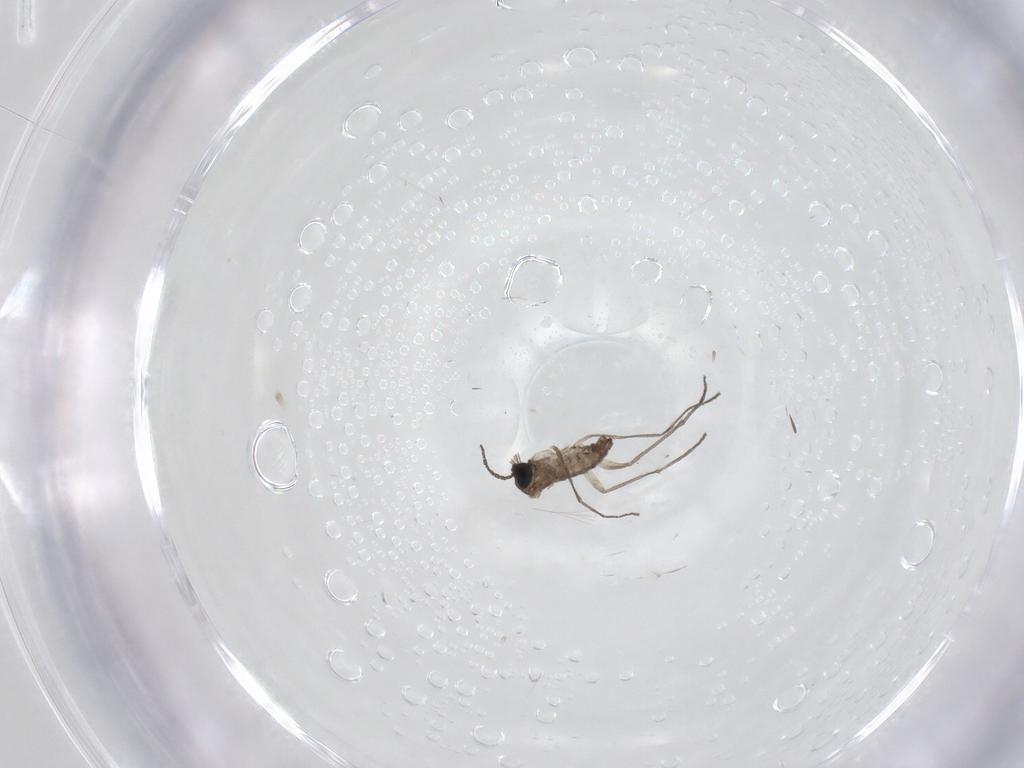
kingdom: Animalia
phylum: Arthropoda
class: Insecta
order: Diptera
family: Sciaridae
